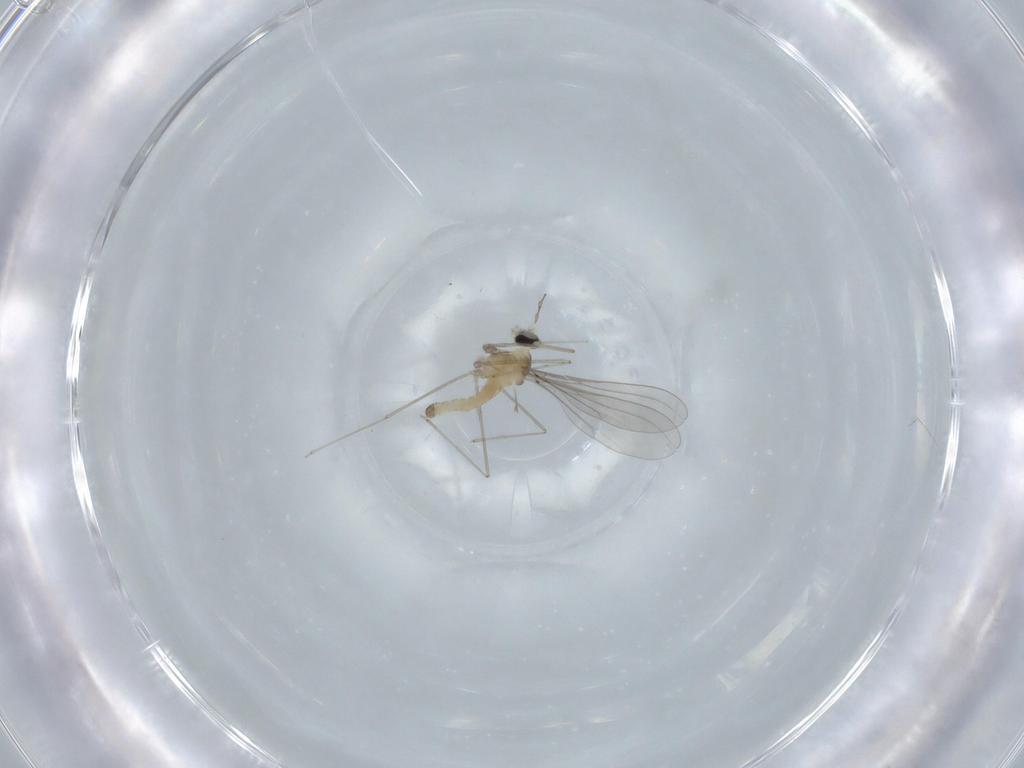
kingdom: Animalia
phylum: Arthropoda
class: Insecta
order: Diptera
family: Cecidomyiidae
